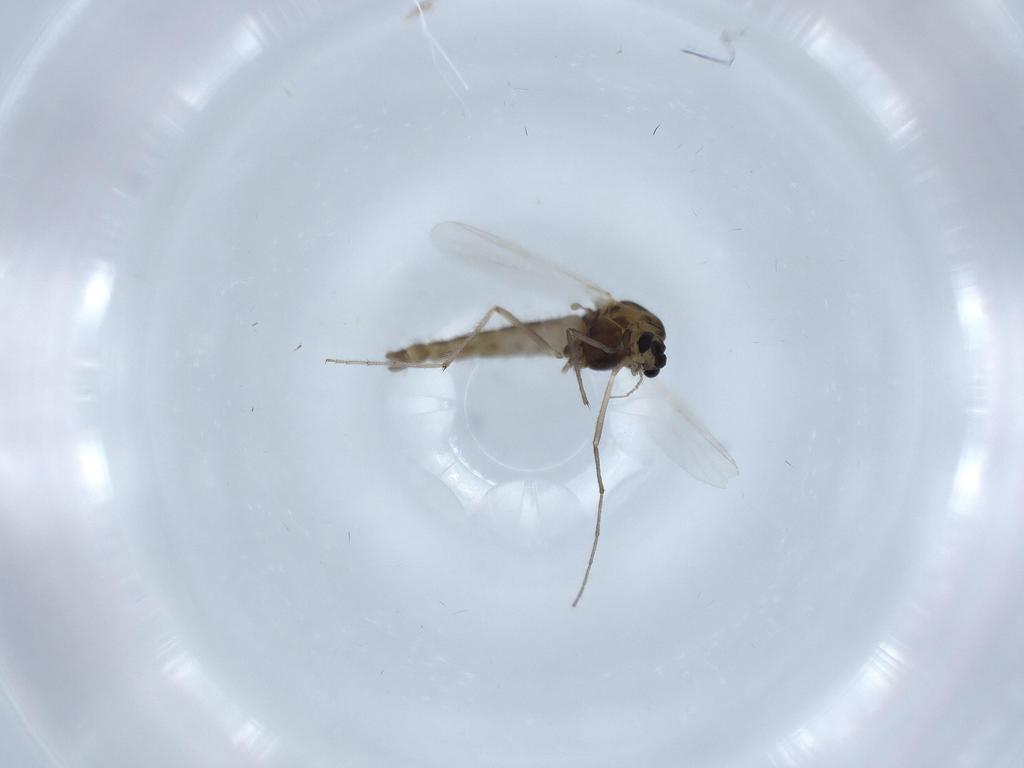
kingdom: Animalia
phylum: Arthropoda
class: Insecta
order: Diptera
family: Chironomidae
